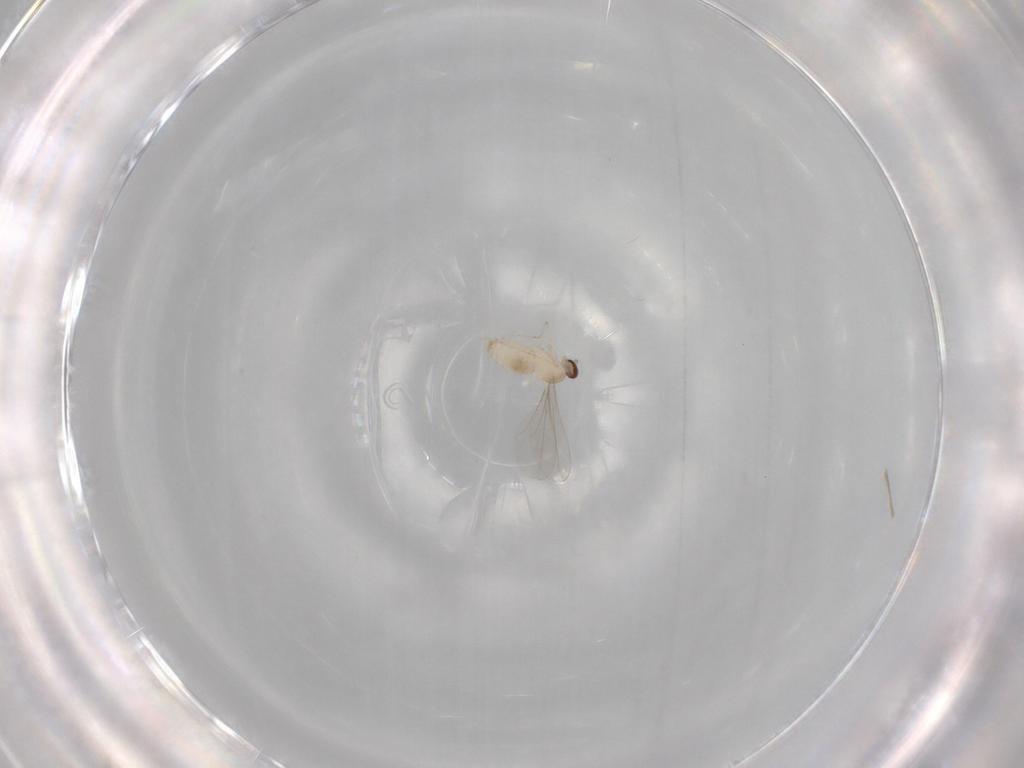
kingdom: Animalia
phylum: Arthropoda
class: Insecta
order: Diptera
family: Cecidomyiidae
